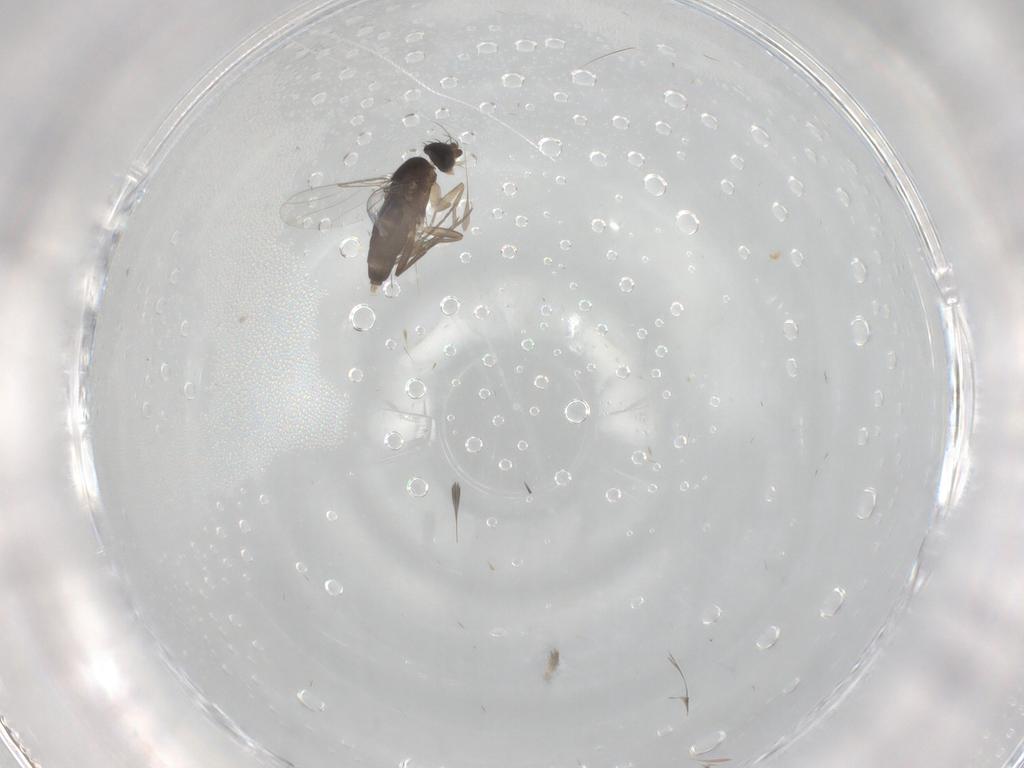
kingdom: Animalia
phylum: Arthropoda
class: Insecta
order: Diptera
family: Phoridae
